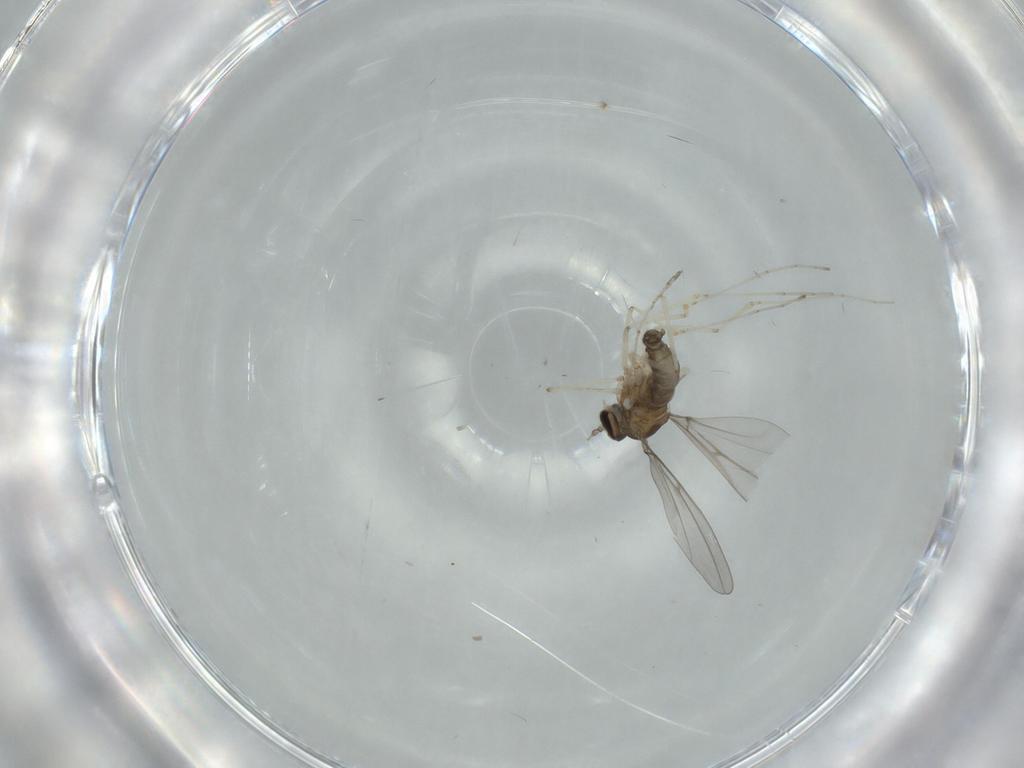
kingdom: Animalia
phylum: Arthropoda
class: Insecta
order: Diptera
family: Cecidomyiidae
